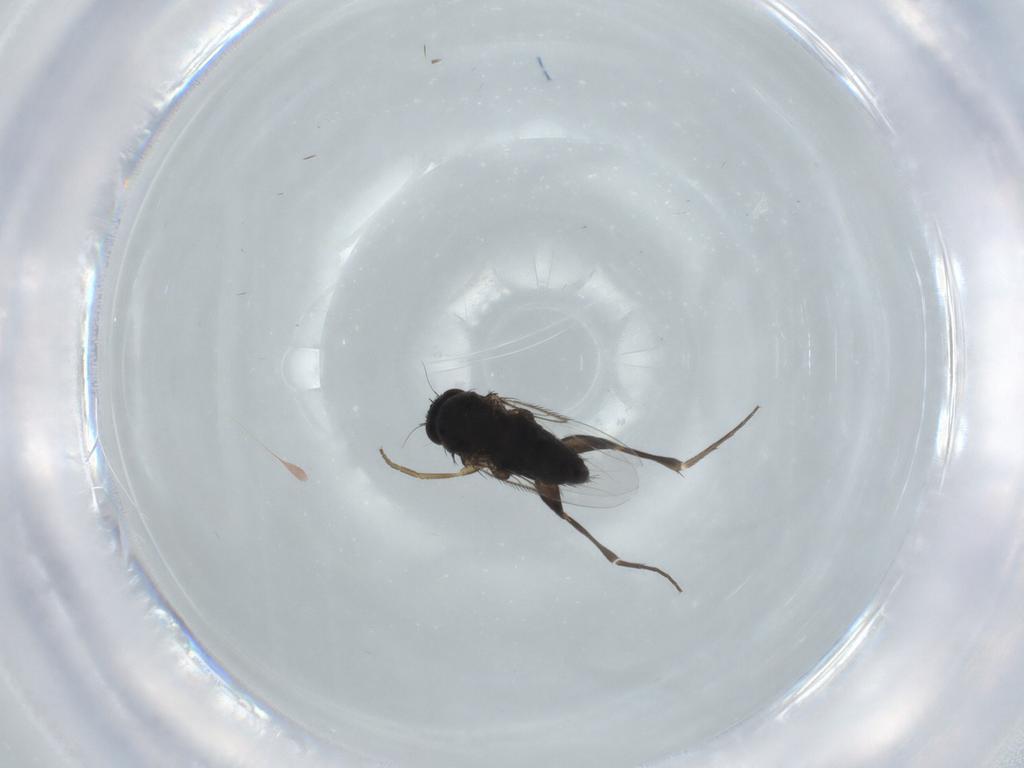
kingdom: Animalia
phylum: Arthropoda
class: Insecta
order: Diptera
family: Phoridae
